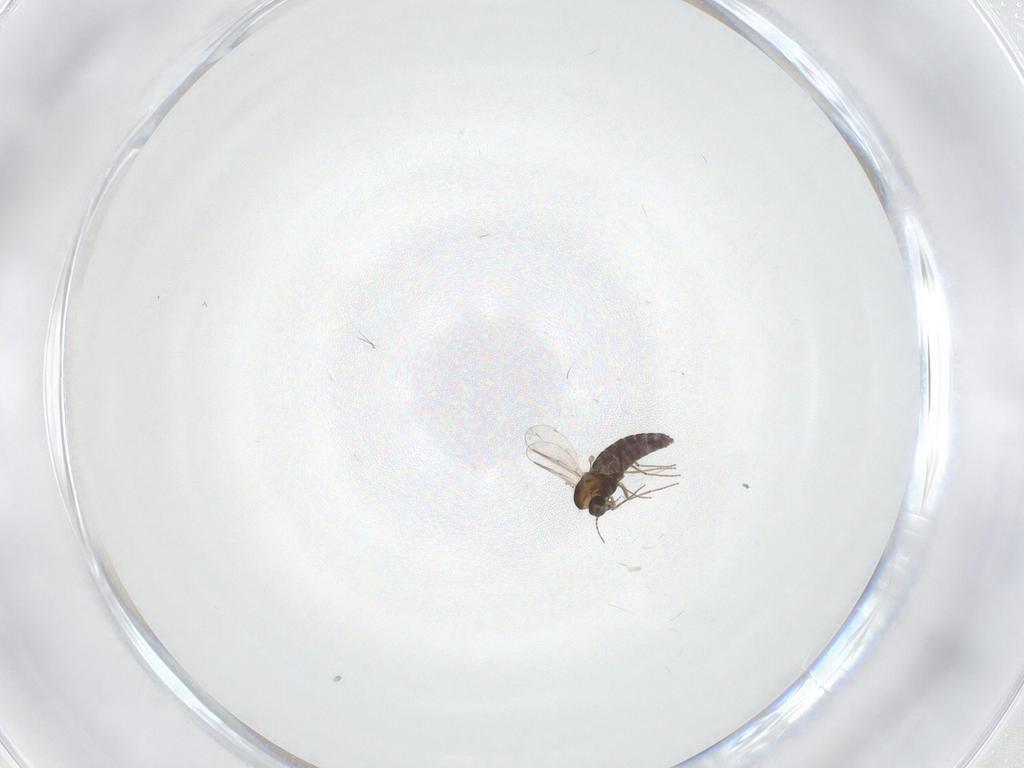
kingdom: Animalia
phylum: Arthropoda
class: Insecta
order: Diptera
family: Chironomidae
